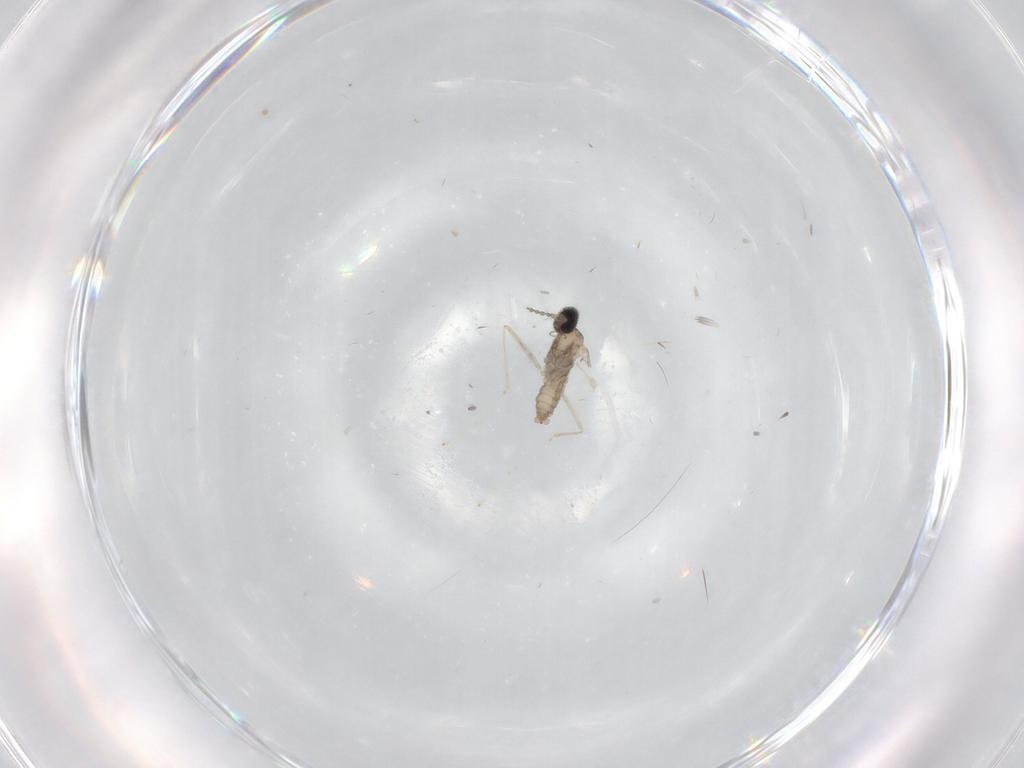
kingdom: Animalia
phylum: Arthropoda
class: Insecta
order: Diptera
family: Cecidomyiidae
